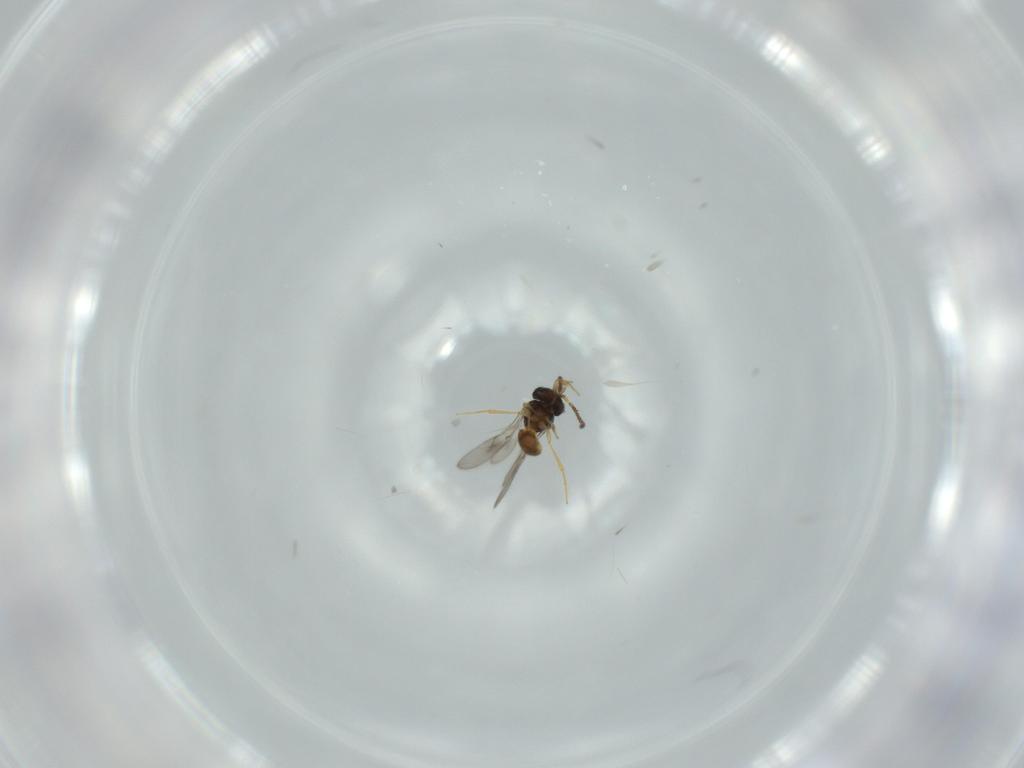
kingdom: Animalia
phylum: Arthropoda
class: Insecta
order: Hymenoptera
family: Scelionidae
